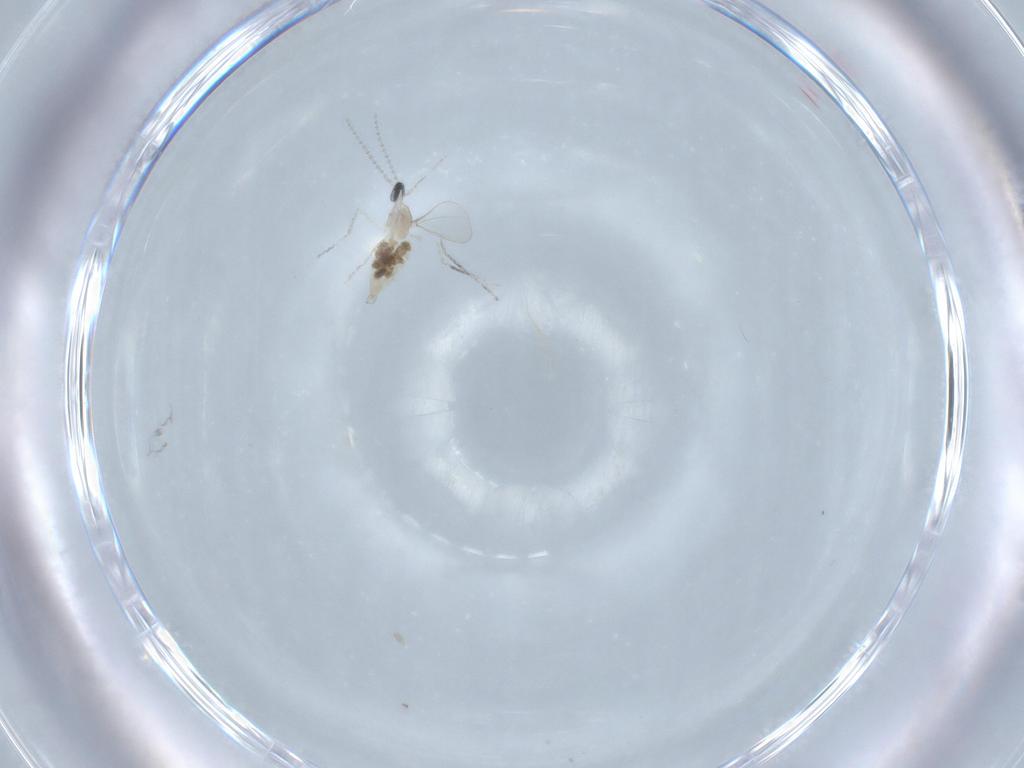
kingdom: Animalia
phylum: Arthropoda
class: Insecta
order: Diptera
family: Cecidomyiidae
